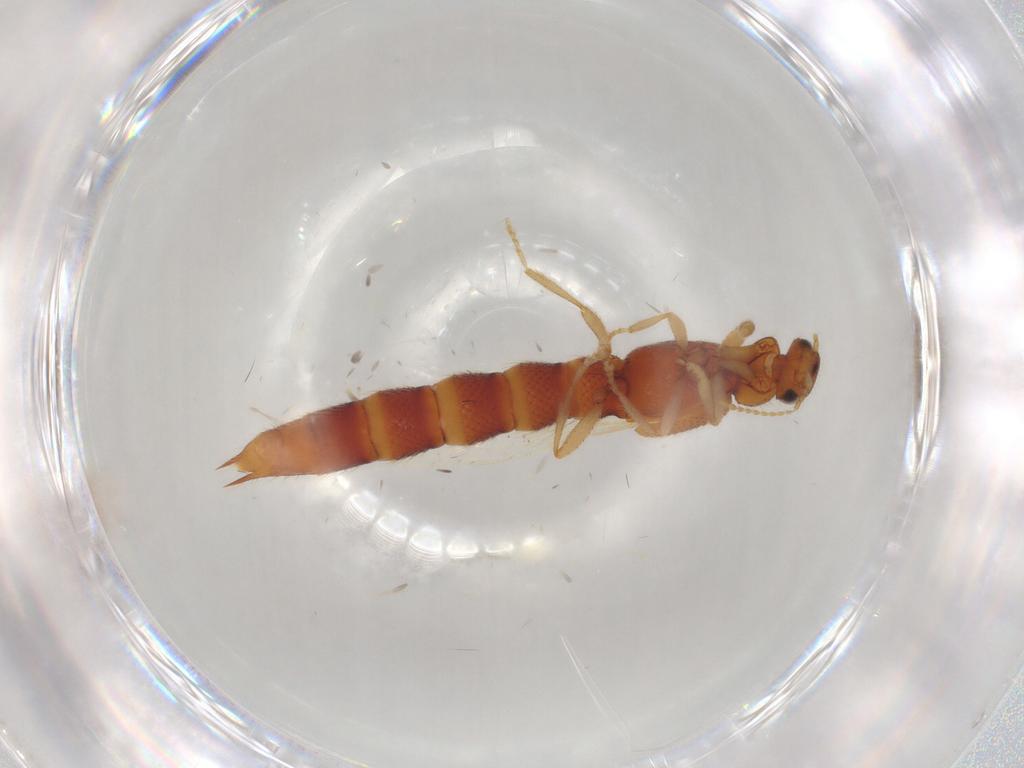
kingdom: Animalia
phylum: Arthropoda
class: Insecta
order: Coleoptera
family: Staphylinidae
